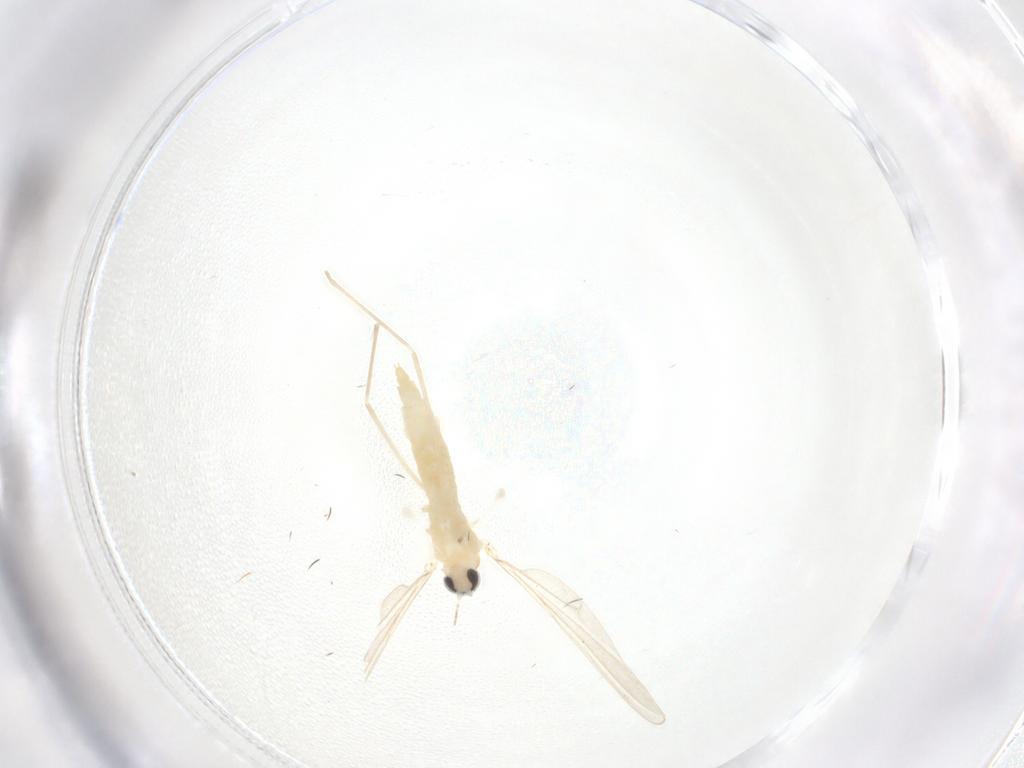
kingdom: Animalia
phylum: Arthropoda
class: Insecta
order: Diptera
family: Cecidomyiidae
